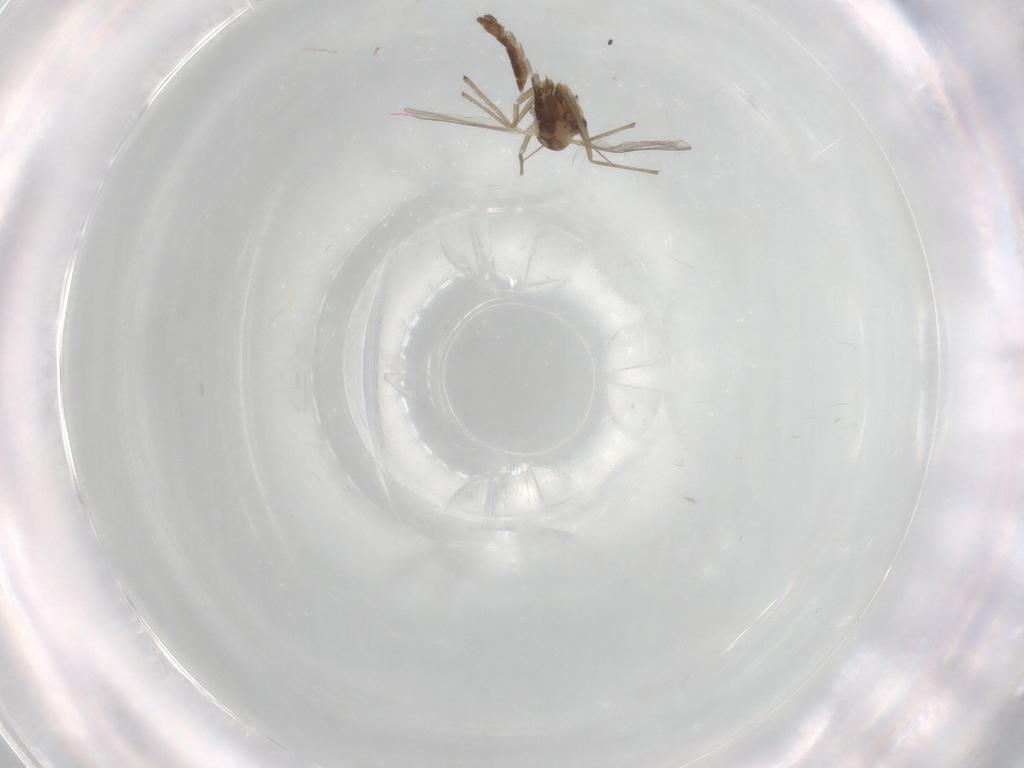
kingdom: Animalia
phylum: Arthropoda
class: Insecta
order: Diptera
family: Chironomidae
